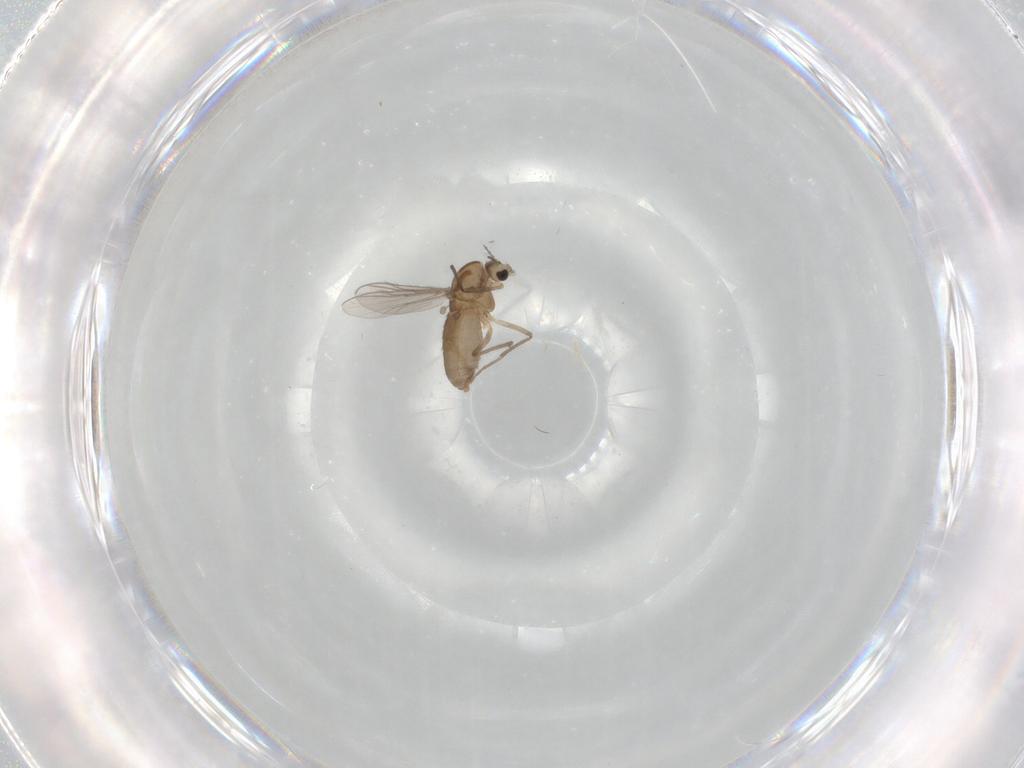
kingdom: Animalia
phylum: Arthropoda
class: Insecta
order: Diptera
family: Chironomidae
